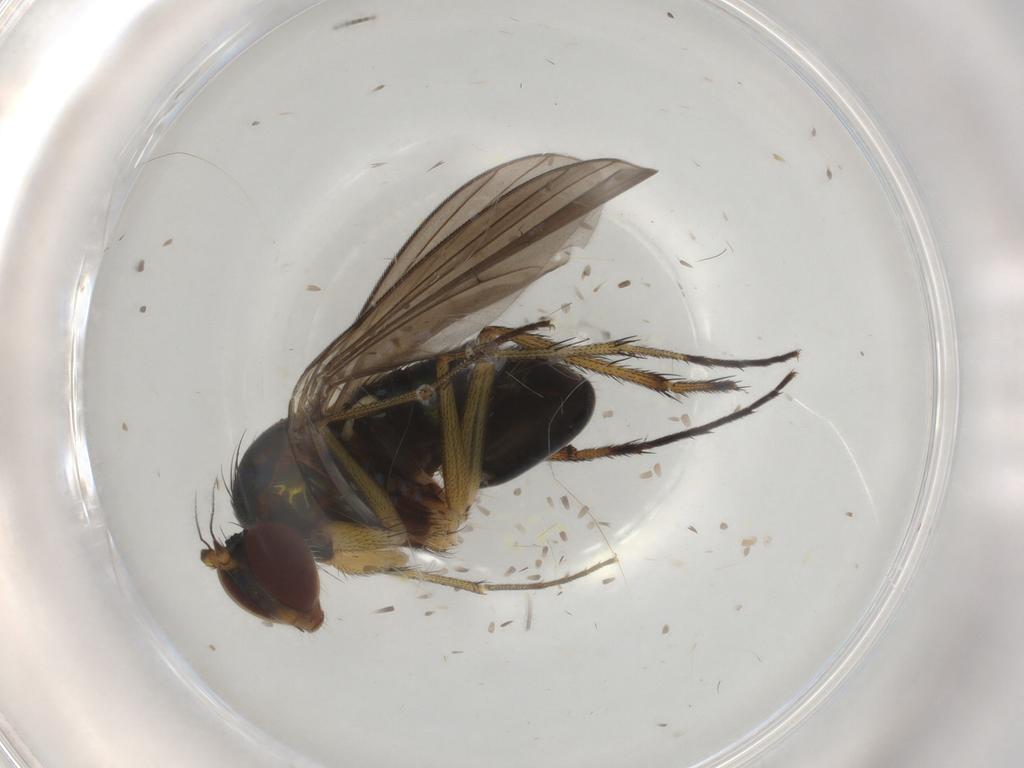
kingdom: Animalia
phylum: Arthropoda
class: Insecta
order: Diptera
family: Dolichopodidae
